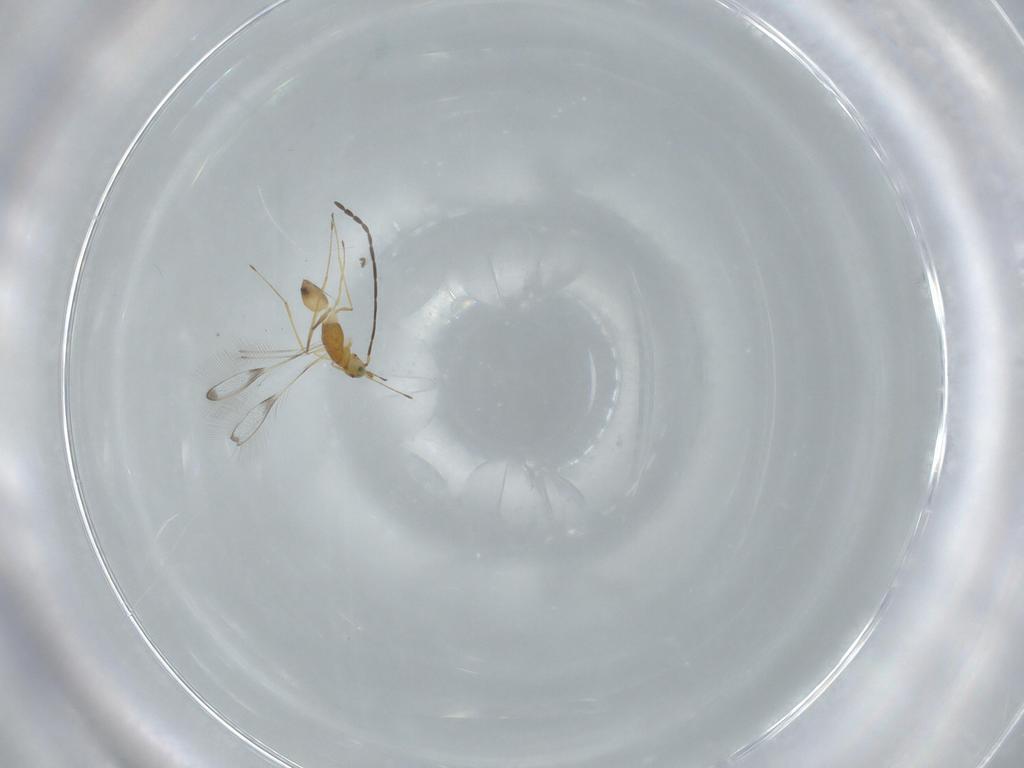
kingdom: Animalia
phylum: Arthropoda
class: Insecta
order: Hymenoptera
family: Mymaridae
